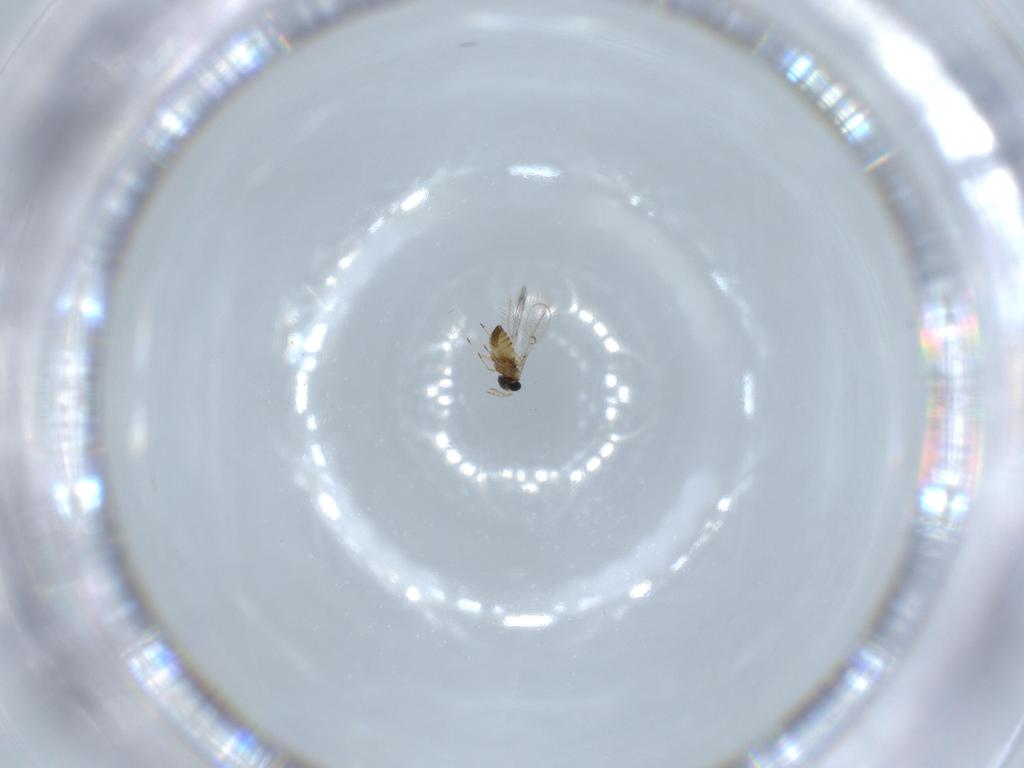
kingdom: Animalia
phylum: Arthropoda
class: Insecta
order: Hymenoptera
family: Trichogrammatidae
